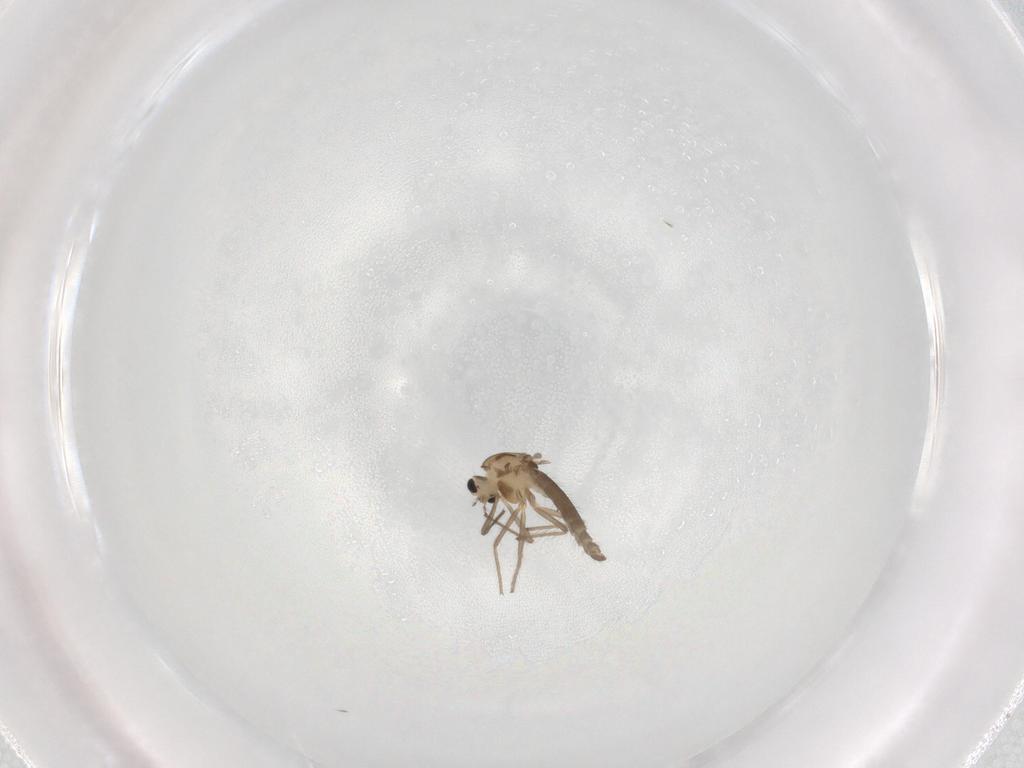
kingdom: Animalia
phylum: Arthropoda
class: Insecta
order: Diptera
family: Chironomidae
